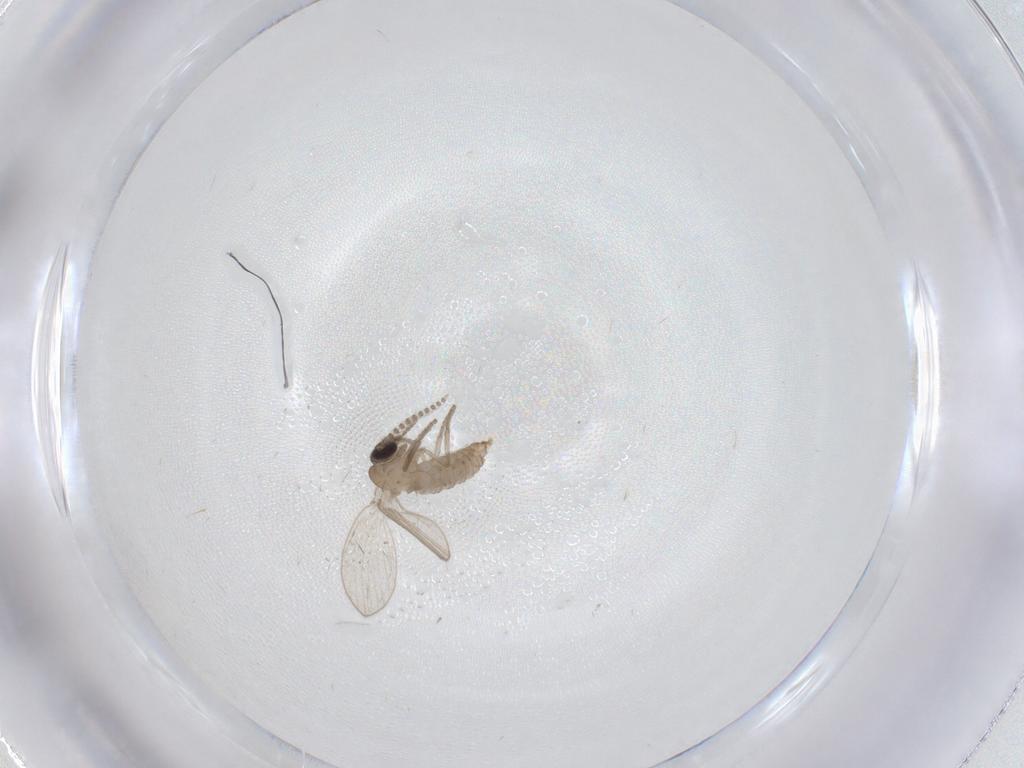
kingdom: Animalia
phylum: Arthropoda
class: Insecta
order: Diptera
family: Psychodidae
